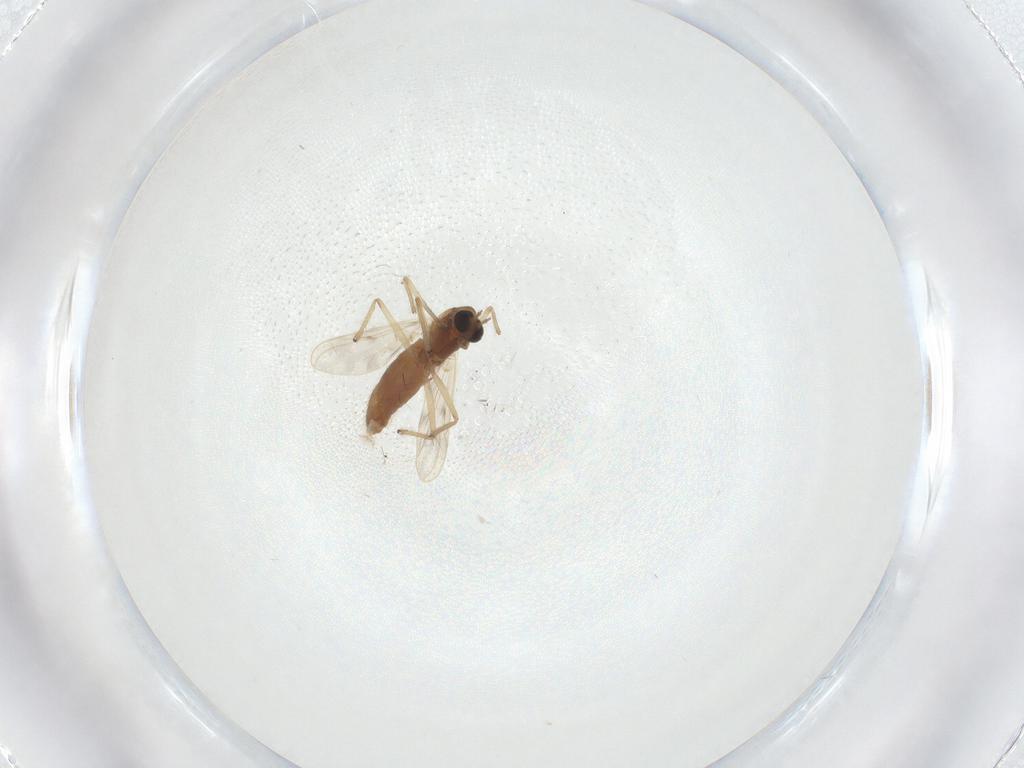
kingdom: Animalia
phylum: Arthropoda
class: Insecta
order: Diptera
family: Chironomidae
